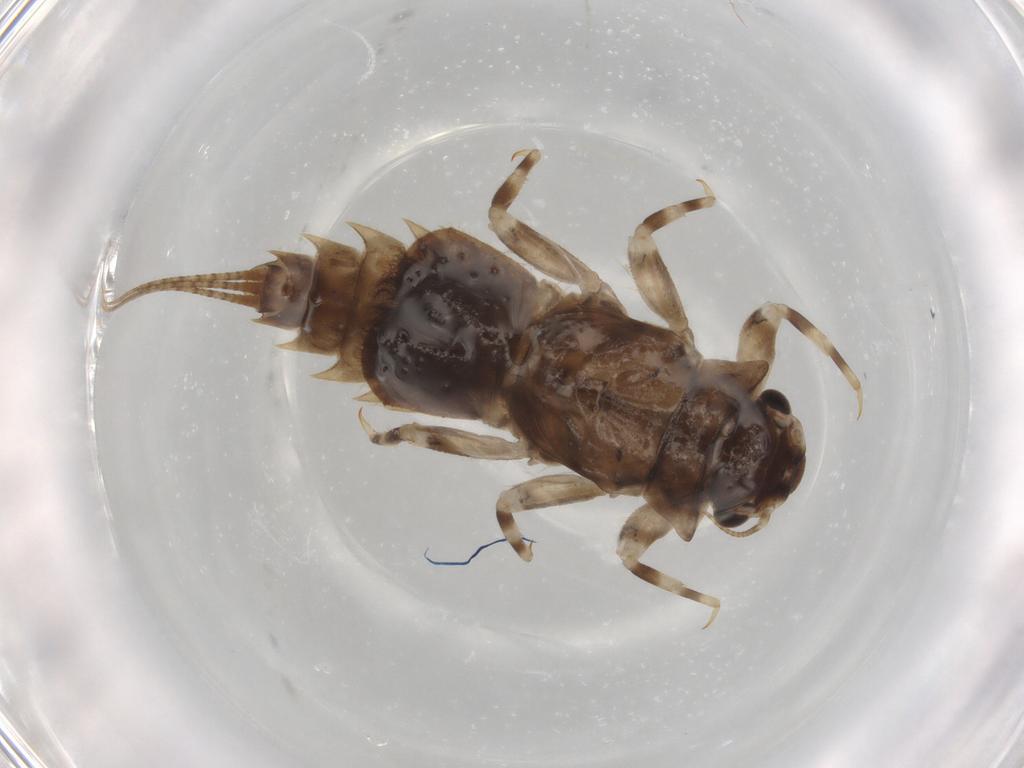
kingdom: Animalia
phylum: Arthropoda
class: Insecta
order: Ephemeroptera
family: Caenidae
